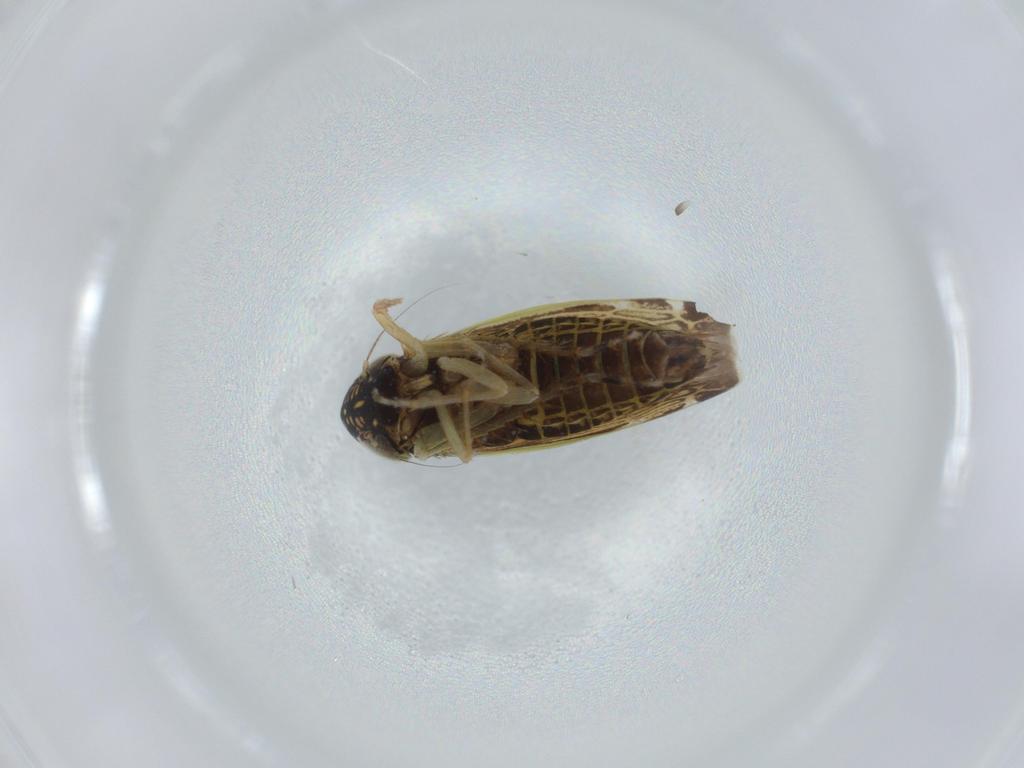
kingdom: Animalia
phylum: Arthropoda
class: Insecta
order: Hemiptera
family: Cicadellidae
